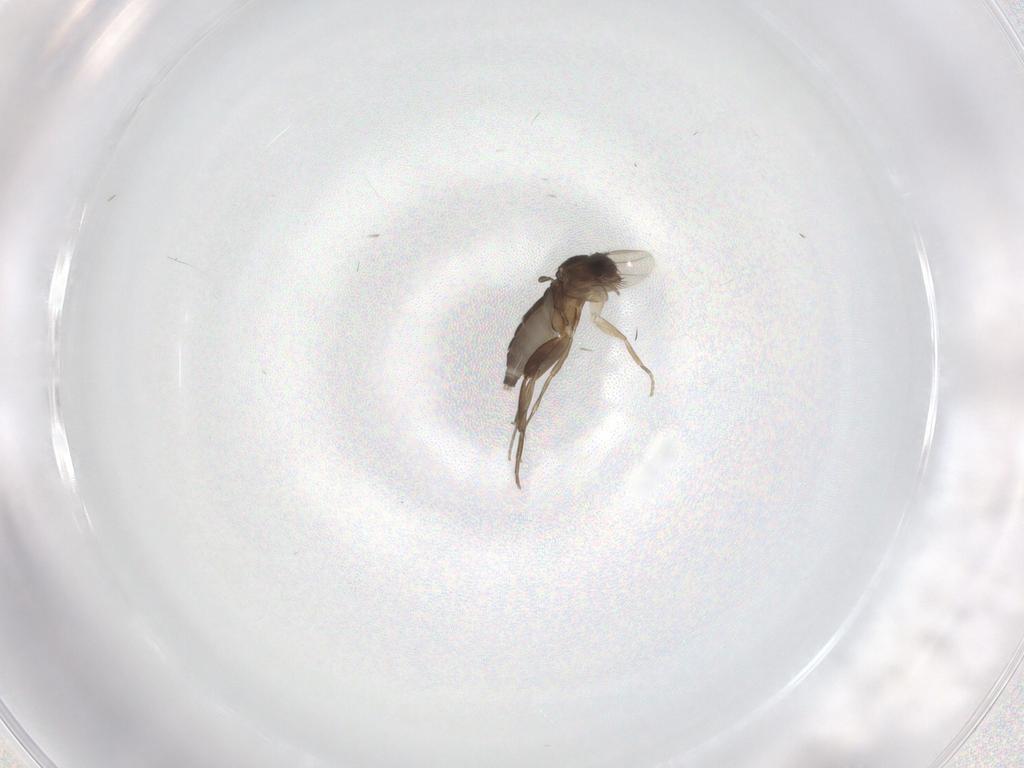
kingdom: Animalia
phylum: Arthropoda
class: Insecta
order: Diptera
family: Phoridae
